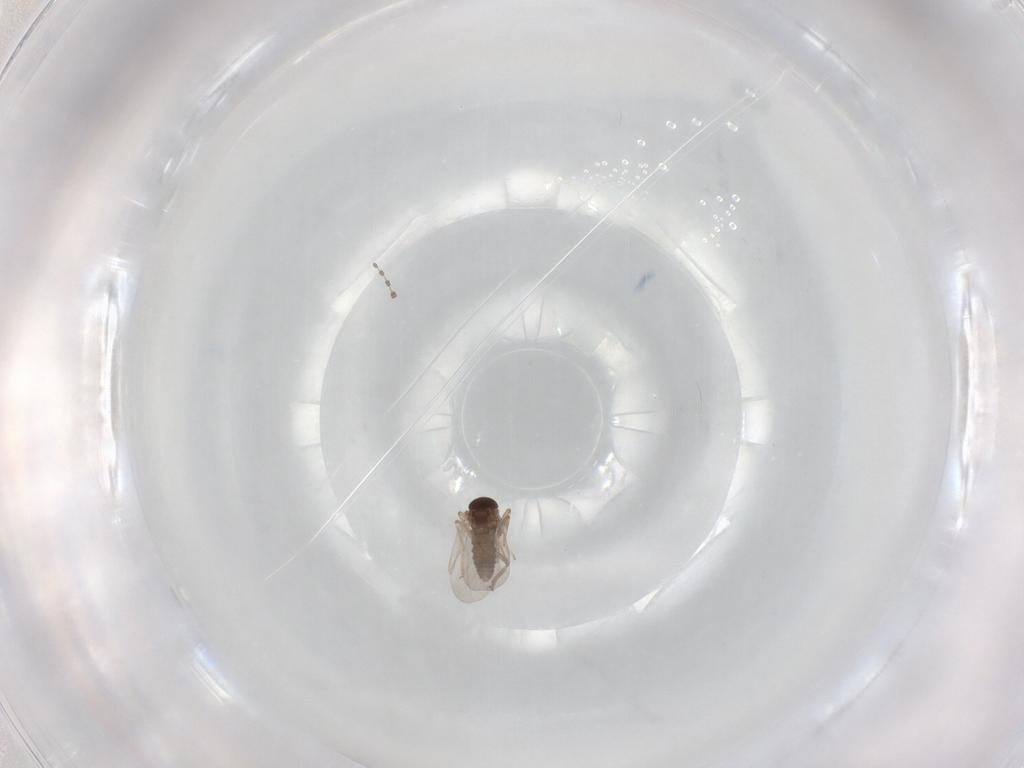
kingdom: Animalia
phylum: Arthropoda
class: Insecta
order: Diptera
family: Ceratopogonidae
